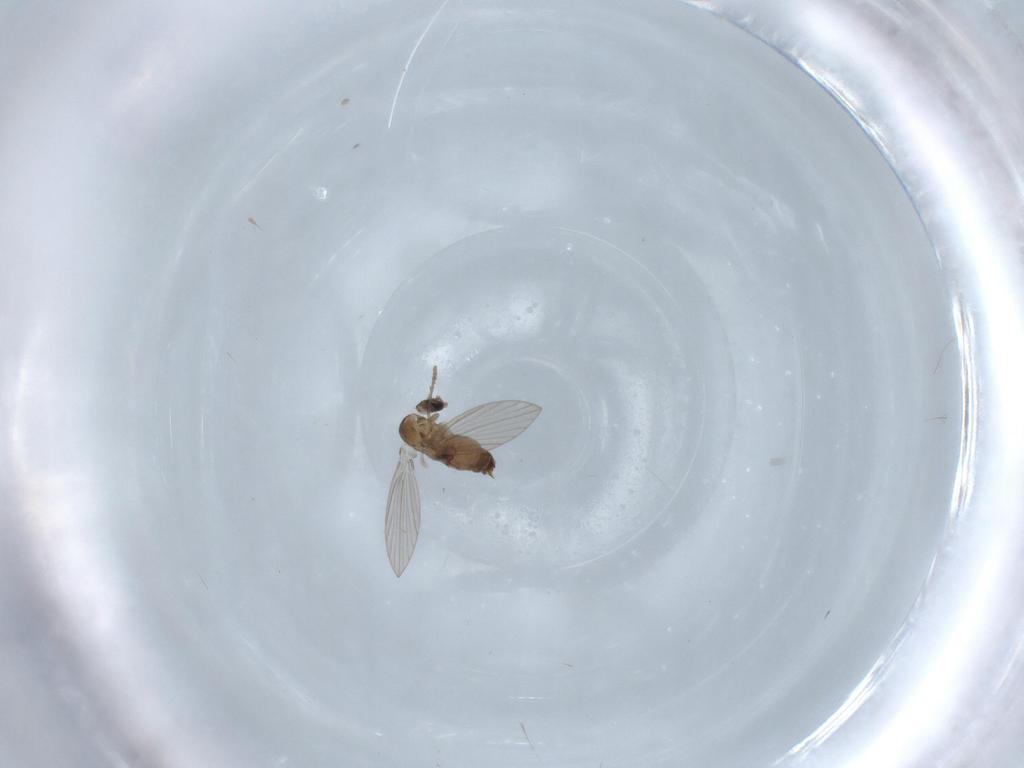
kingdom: Animalia
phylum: Arthropoda
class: Insecta
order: Diptera
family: Psychodidae
